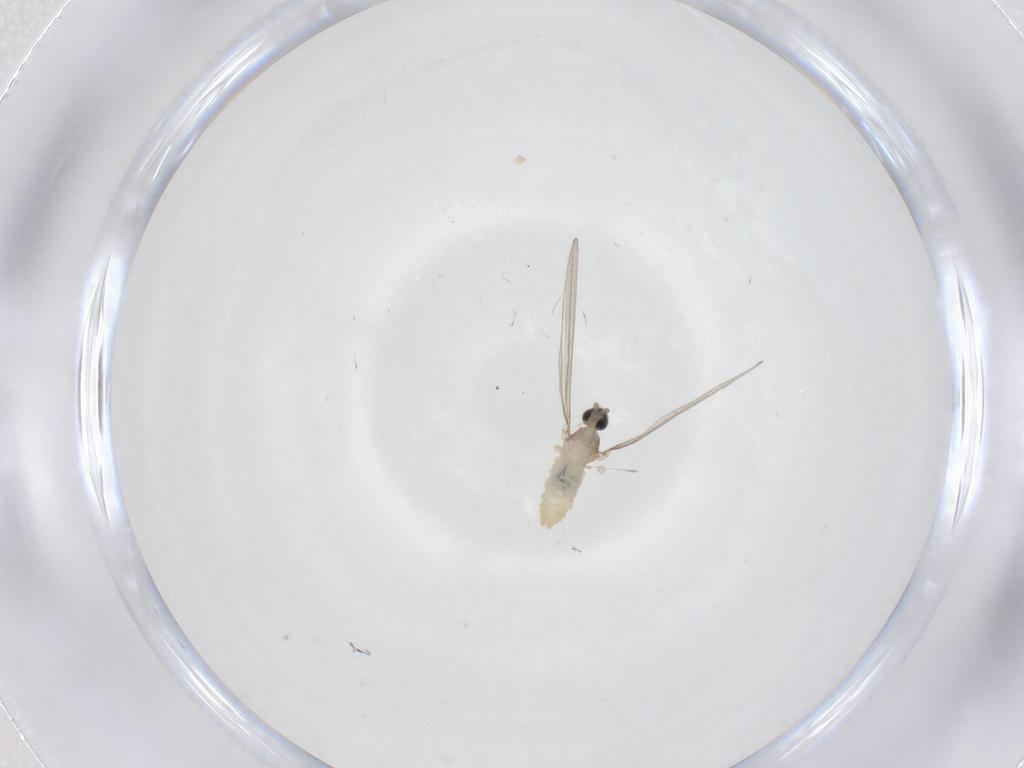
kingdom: Animalia
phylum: Arthropoda
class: Insecta
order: Diptera
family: Cecidomyiidae
